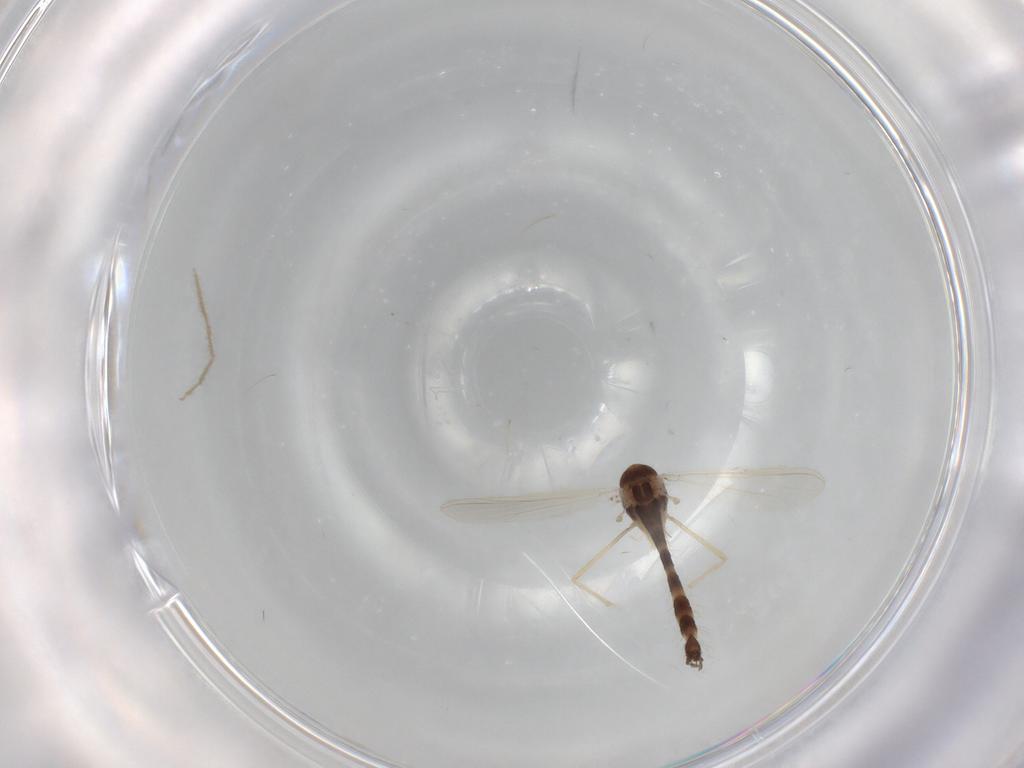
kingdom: Animalia
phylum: Arthropoda
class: Insecta
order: Diptera
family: Chironomidae
